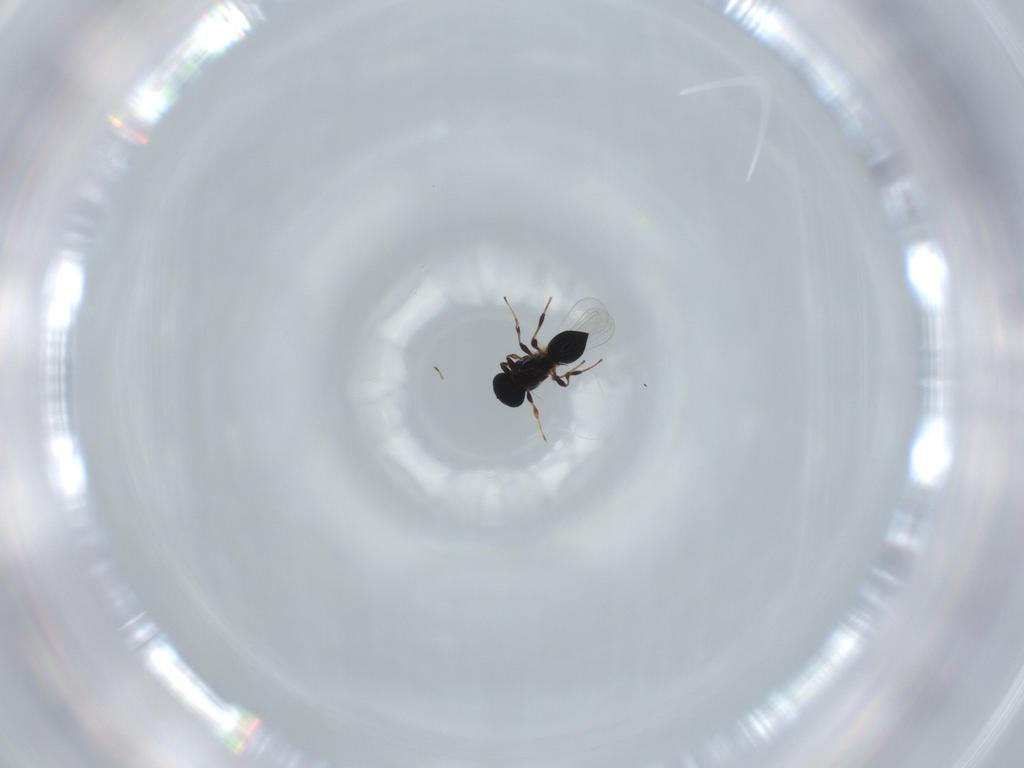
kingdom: Animalia
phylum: Arthropoda
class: Insecta
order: Hymenoptera
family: Platygastridae
